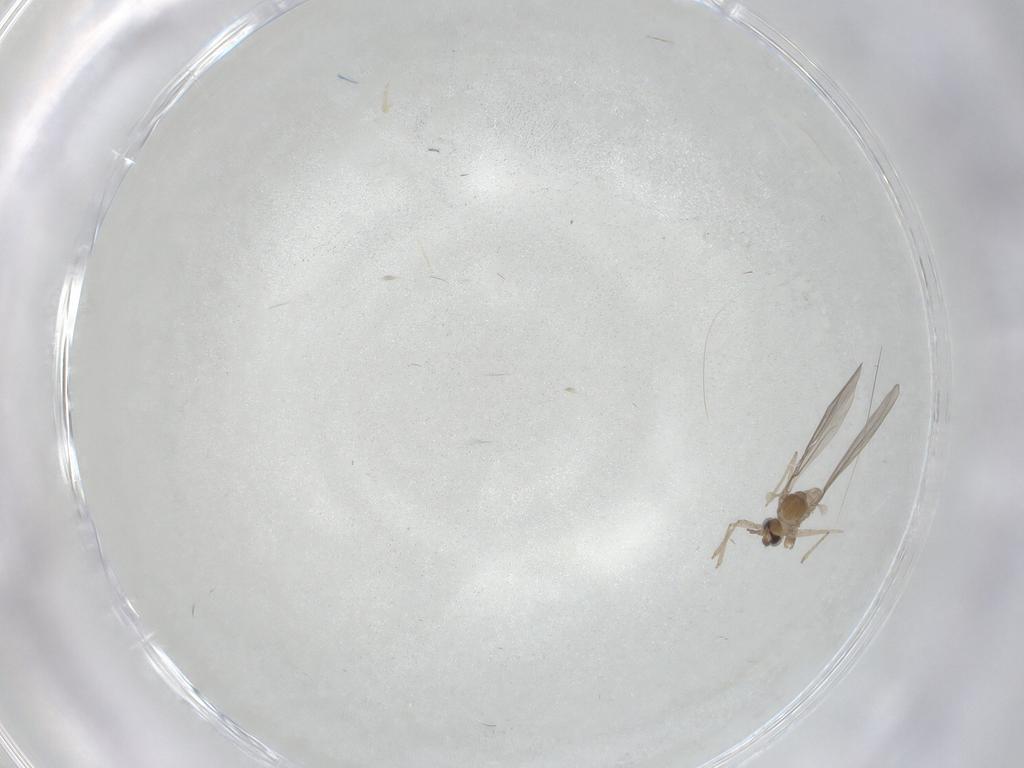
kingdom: Animalia
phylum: Arthropoda
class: Insecta
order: Diptera
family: Cecidomyiidae
